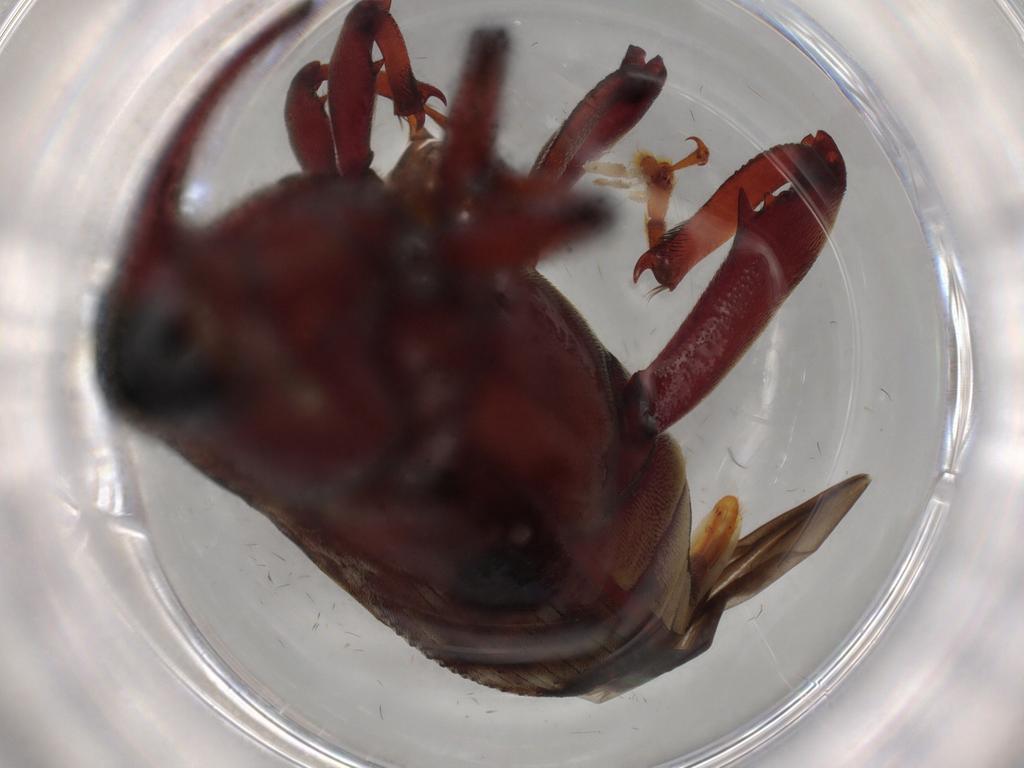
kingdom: Animalia
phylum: Arthropoda
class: Insecta
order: Coleoptera
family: Curculionidae
